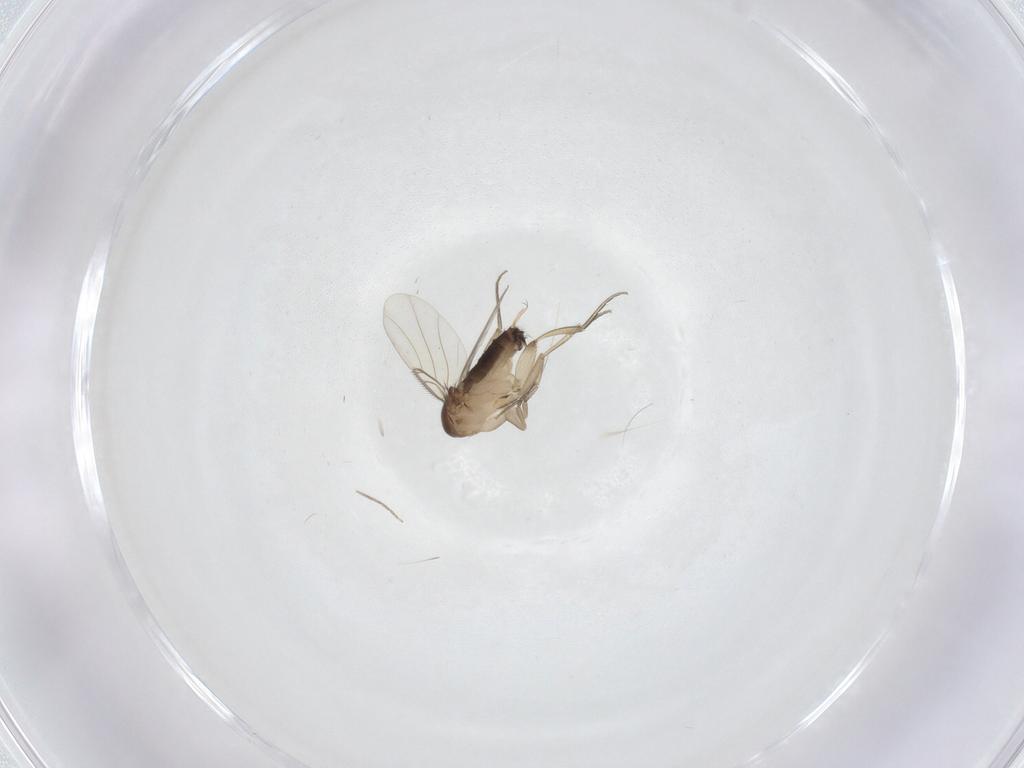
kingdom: Animalia
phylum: Arthropoda
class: Insecta
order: Diptera
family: Phoridae
